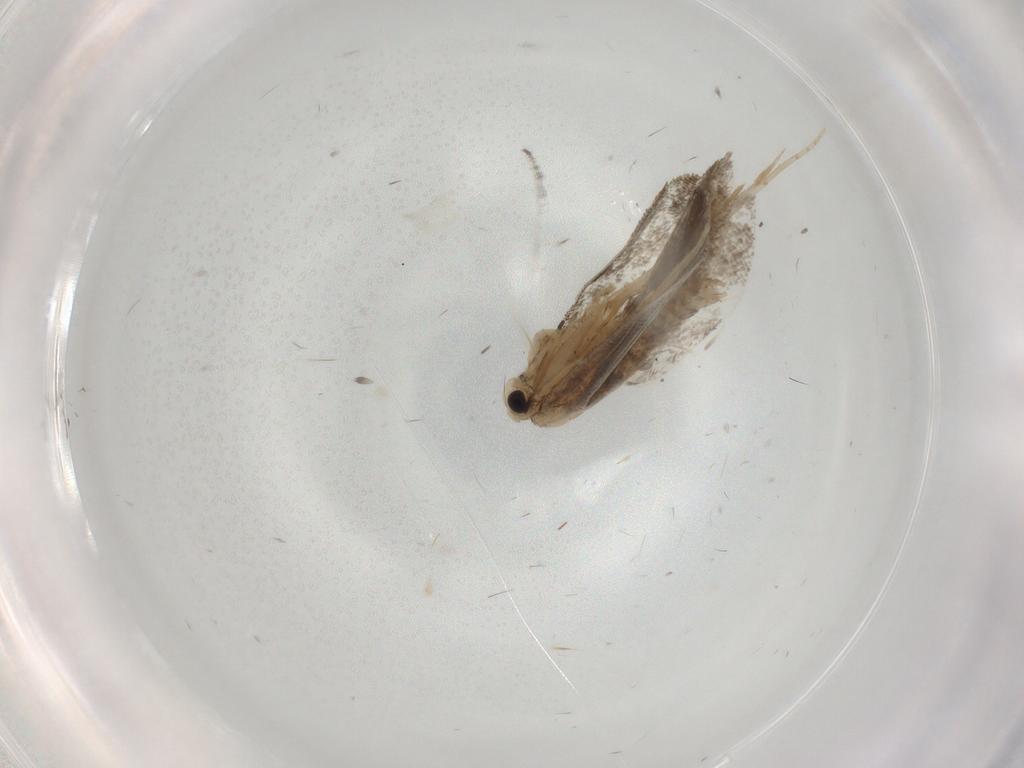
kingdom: Animalia
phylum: Arthropoda
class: Insecta
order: Lepidoptera
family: Psychidae
